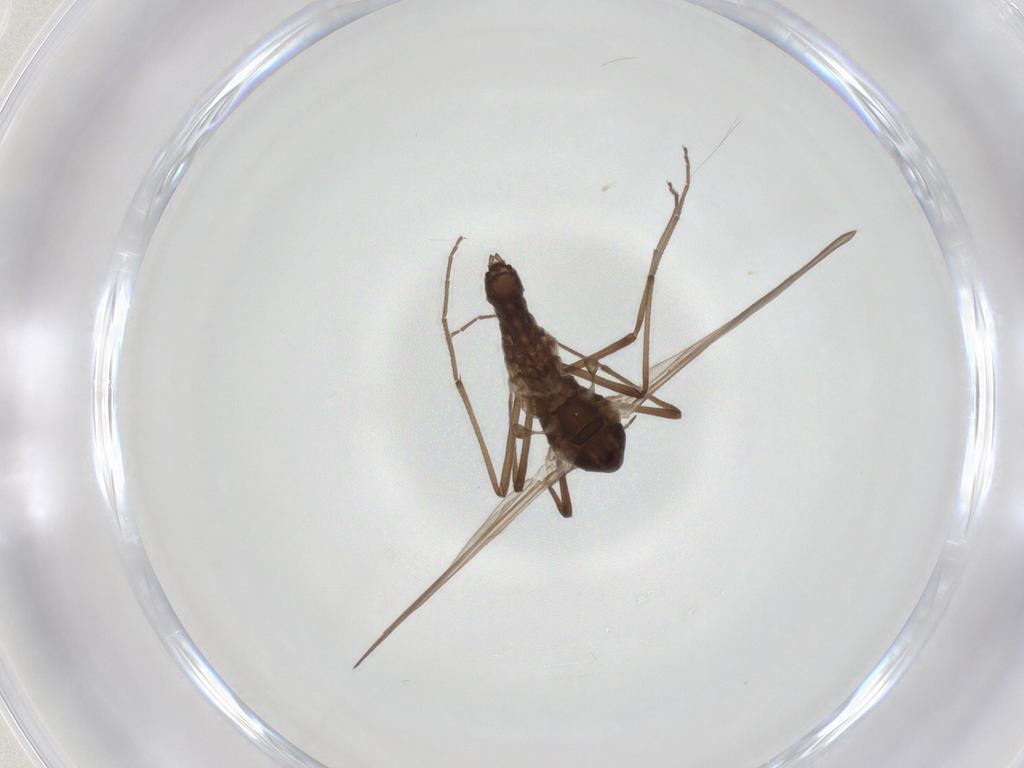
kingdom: Animalia
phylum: Arthropoda
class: Insecta
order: Diptera
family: Chironomidae
